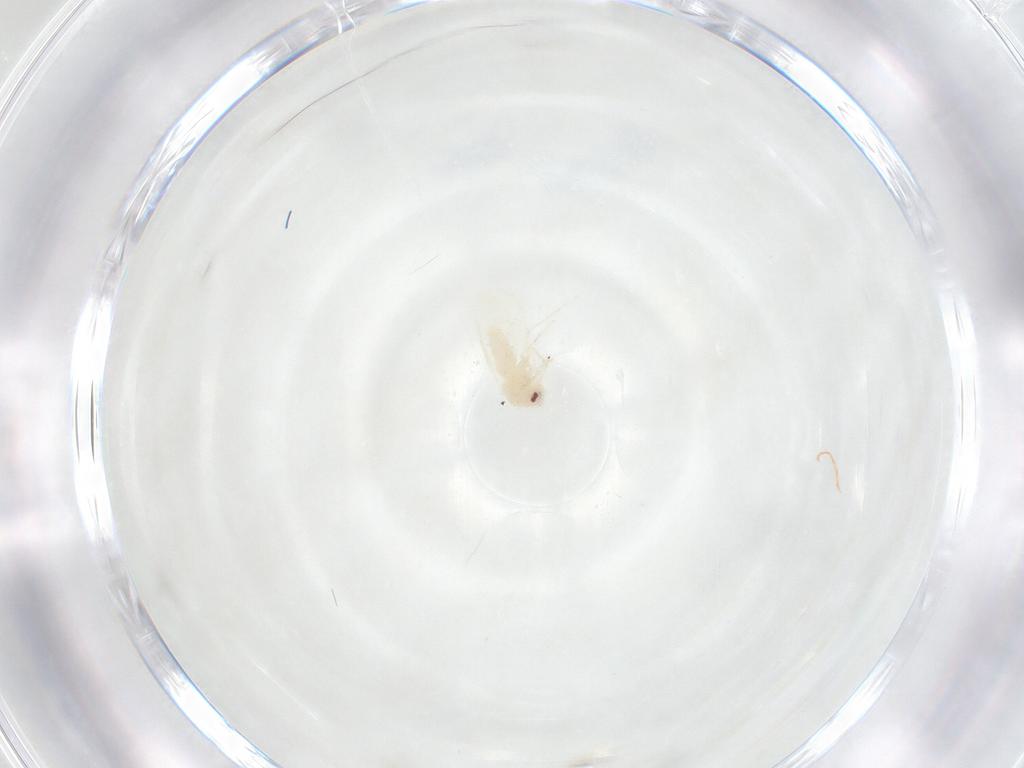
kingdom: Animalia
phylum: Arthropoda
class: Insecta
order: Hemiptera
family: Aleyrodidae
